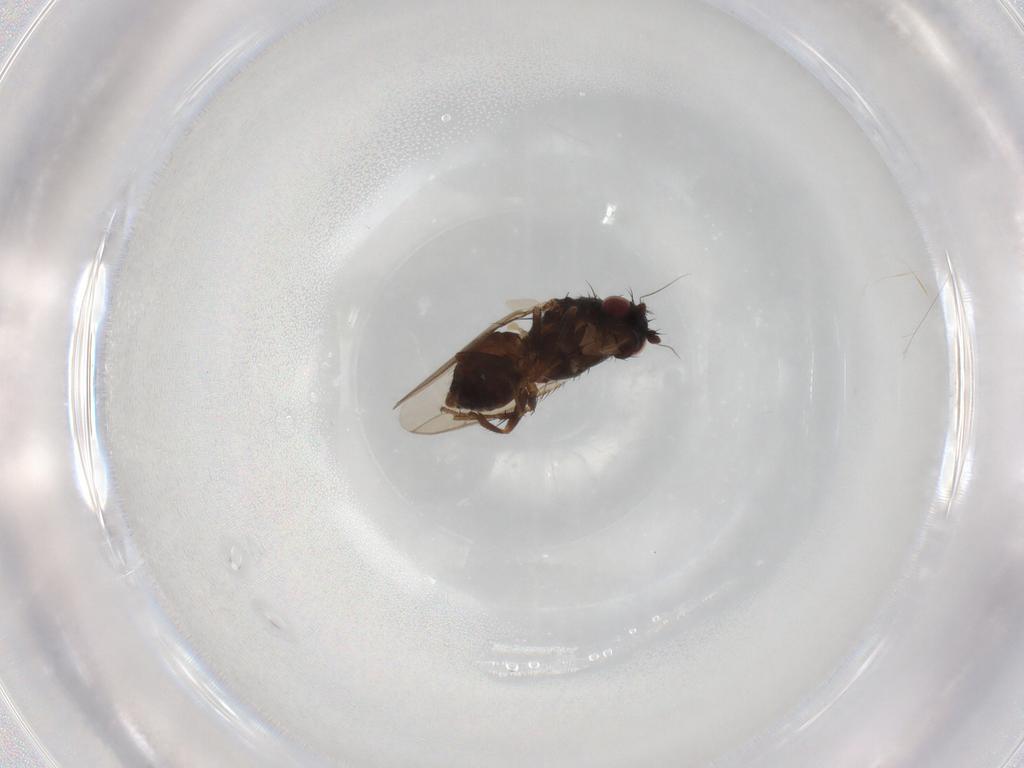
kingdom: Animalia
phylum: Arthropoda
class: Insecta
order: Diptera
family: Sphaeroceridae
